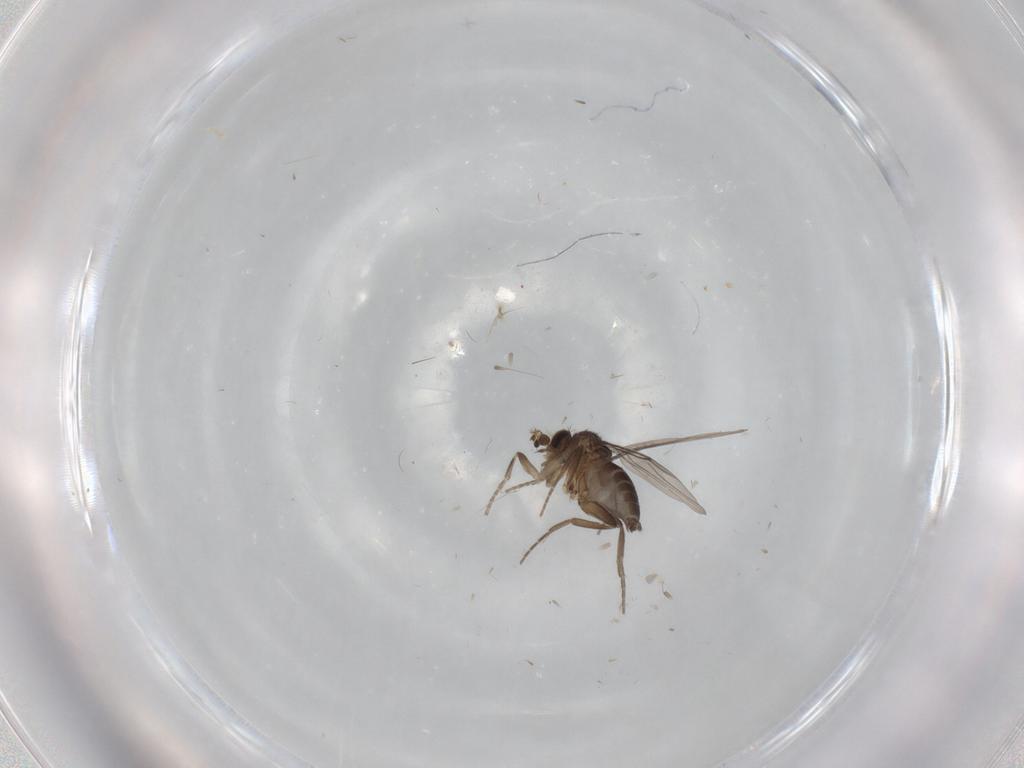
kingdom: Animalia
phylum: Arthropoda
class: Insecta
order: Diptera
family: Phoridae
